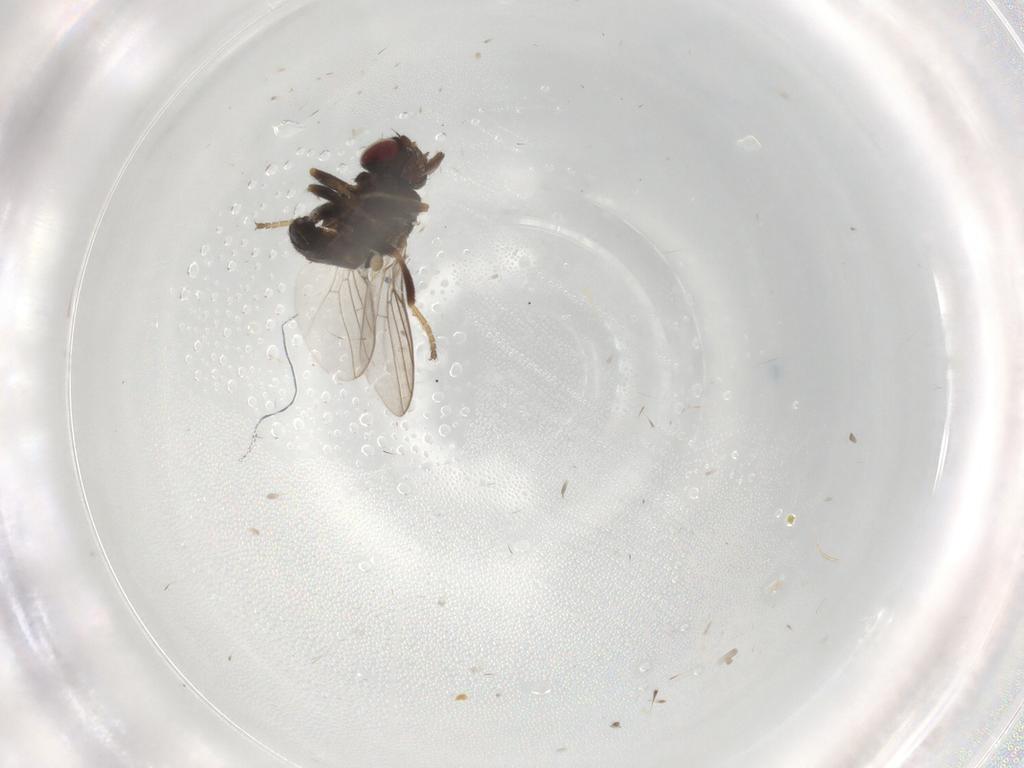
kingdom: Animalia
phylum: Arthropoda
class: Insecta
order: Diptera
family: Chloropidae
